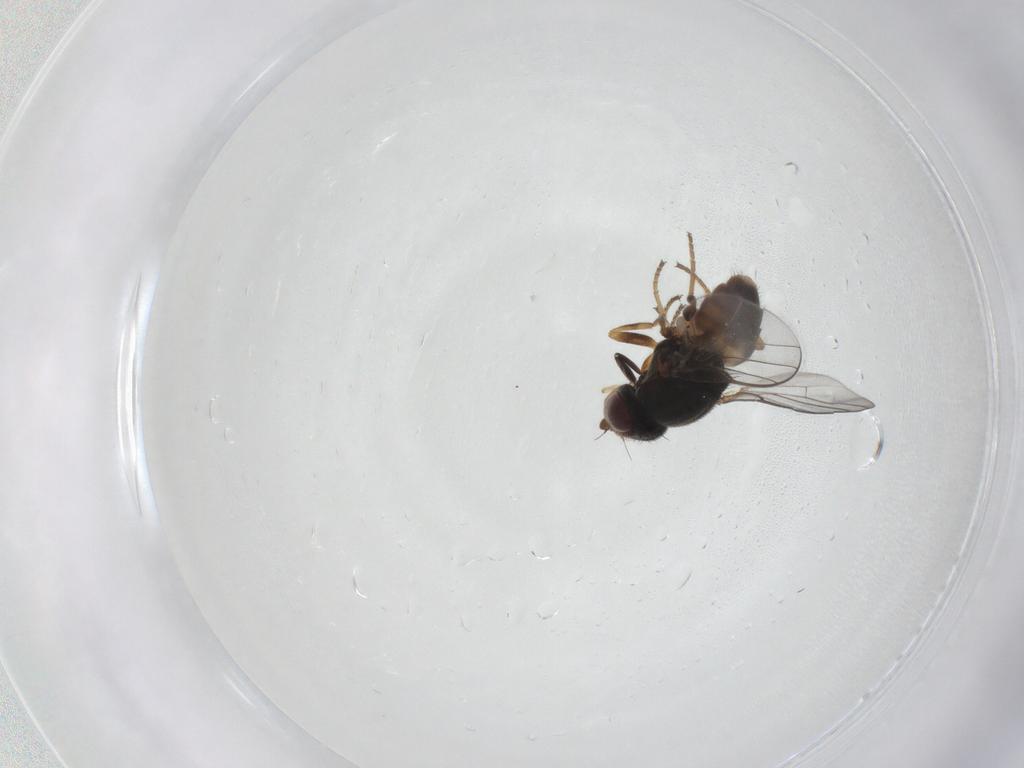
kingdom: Animalia
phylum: Arthropoda
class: Insecta
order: Diptera
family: Chloropidae
